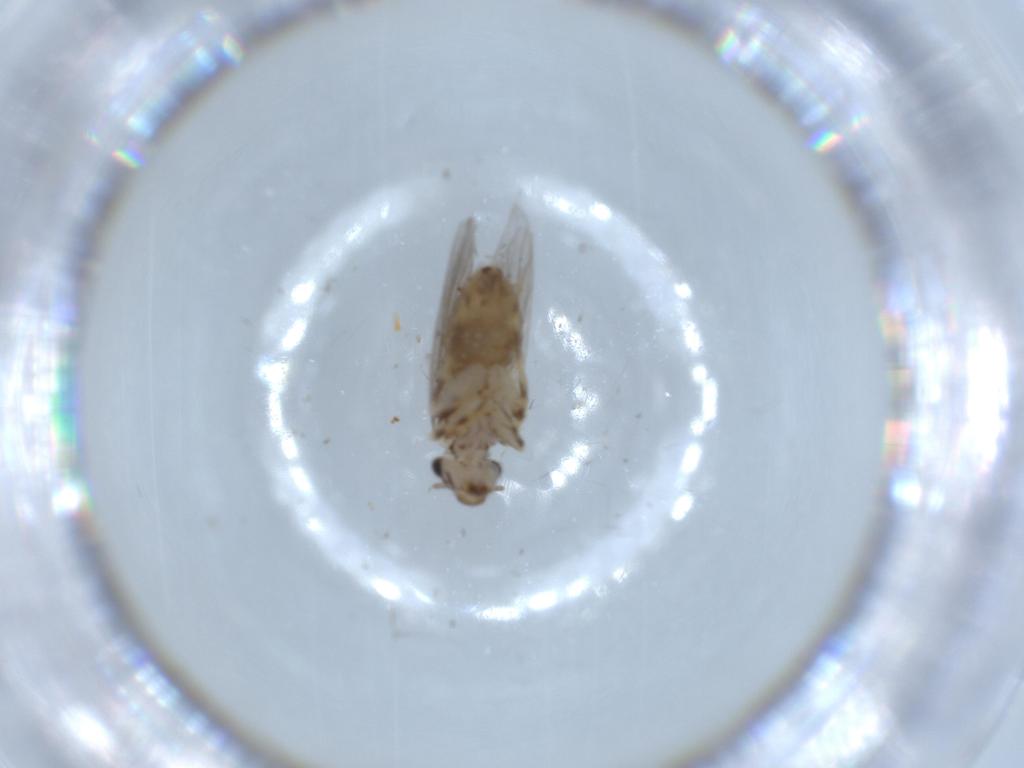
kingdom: Animalia
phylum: Arthropoda
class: Insecta
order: Psocodea
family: Lepidopsocidae
